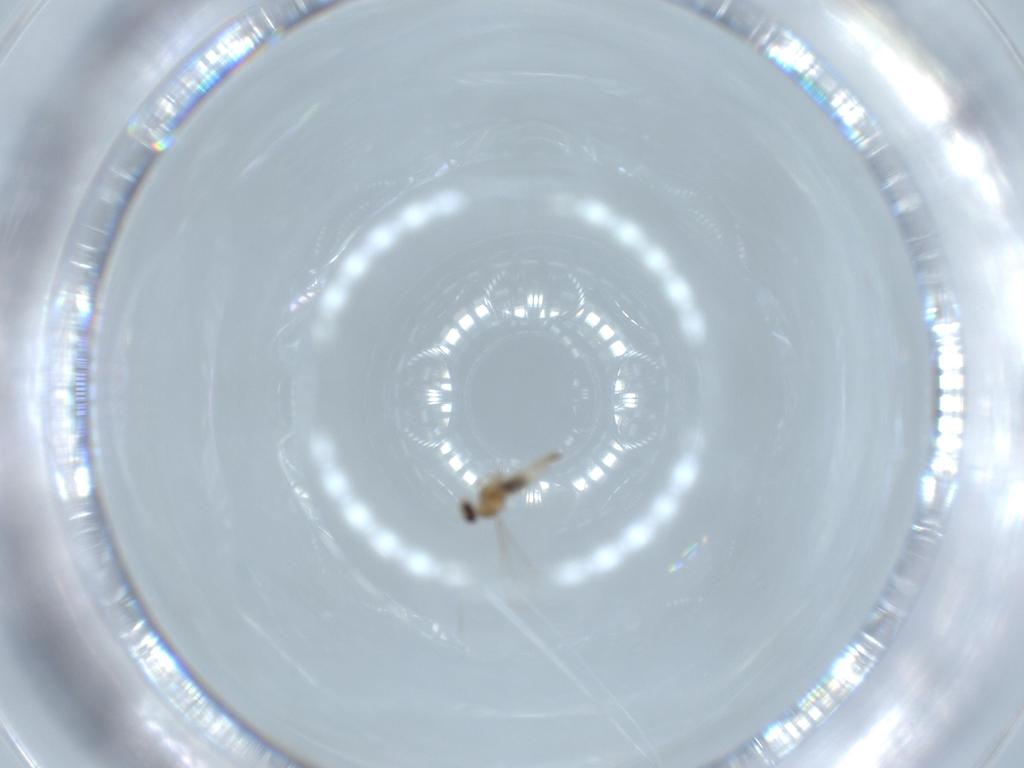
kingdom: Animalia
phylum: Arthropoda
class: Insecta
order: Diptera
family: Cecidomyiidae
